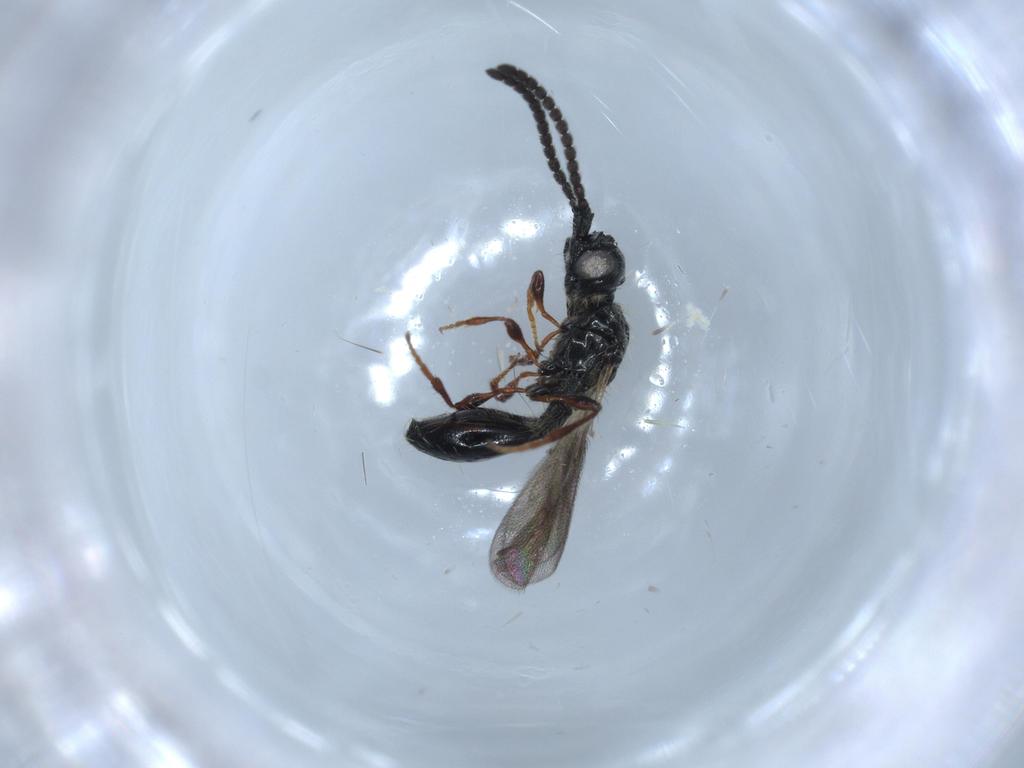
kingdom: Animalia
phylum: Arthropoda
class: Insecta
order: Hymenoptera
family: Diapriidae
